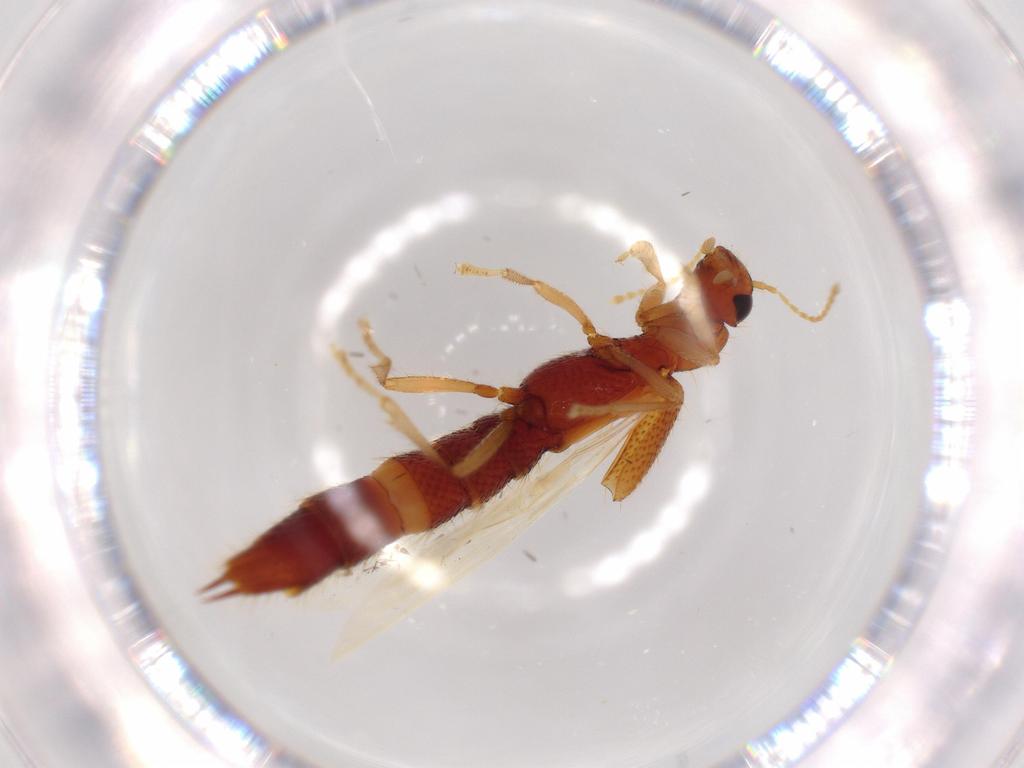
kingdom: Animalia
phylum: Arthropoda
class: Insecta
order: Coleoptera
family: Staphylinidae
